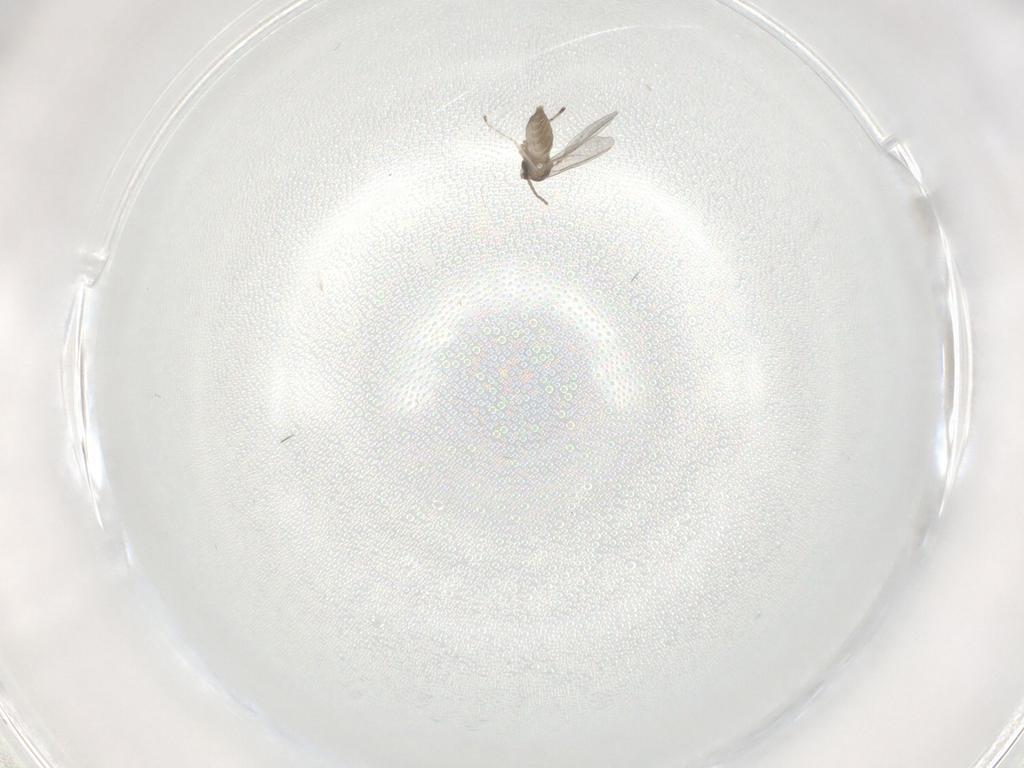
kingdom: Animalia
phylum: Arthropoda
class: Insecta
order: Diptera
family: Cecidomyiidae
